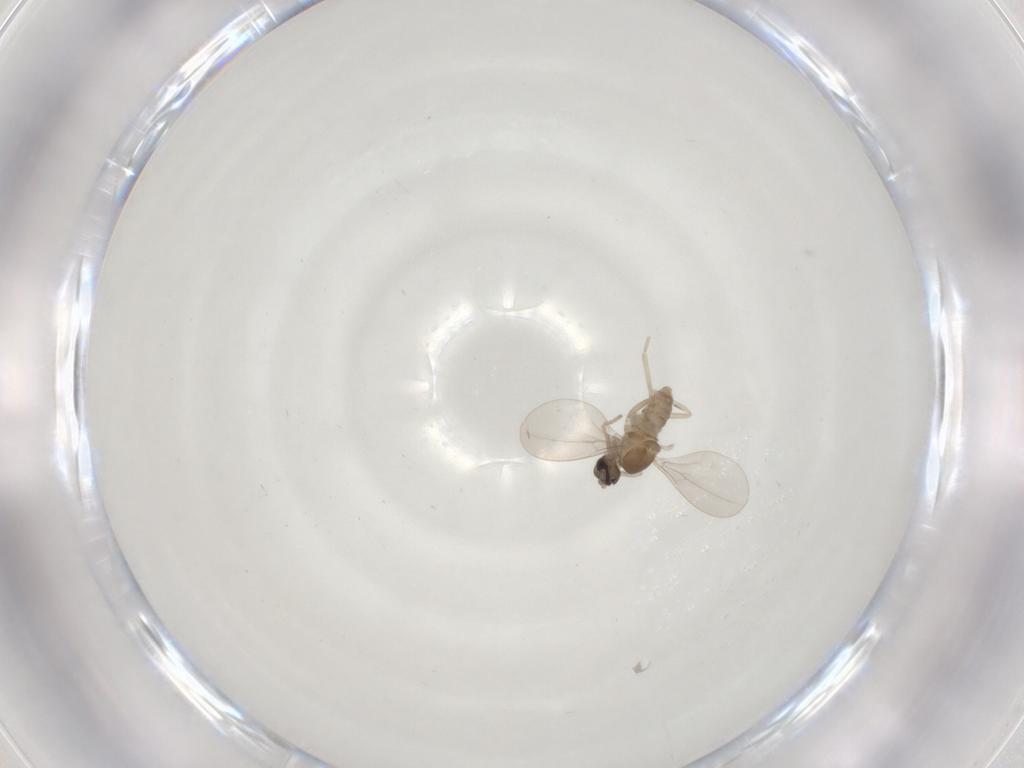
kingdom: Animalia
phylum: Arthropoda
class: Insecta
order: Diptera
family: Cecidomyiidae
